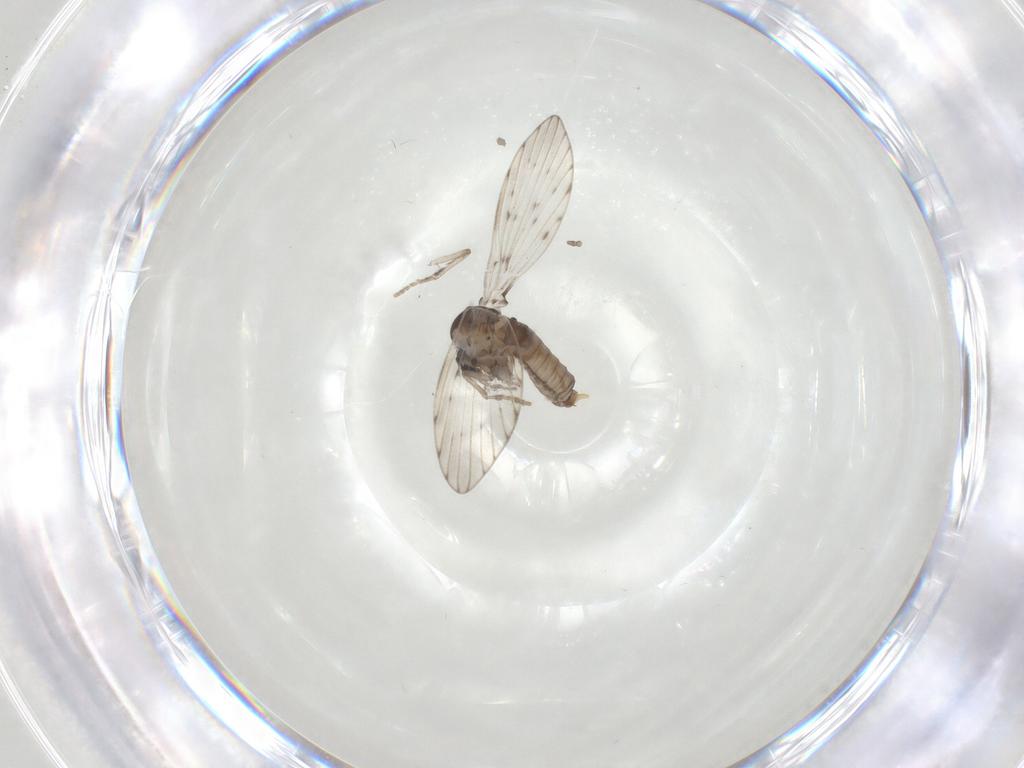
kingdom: Animalia
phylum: Arthropoda
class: Insecta
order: Diptera
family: Psychodidae
